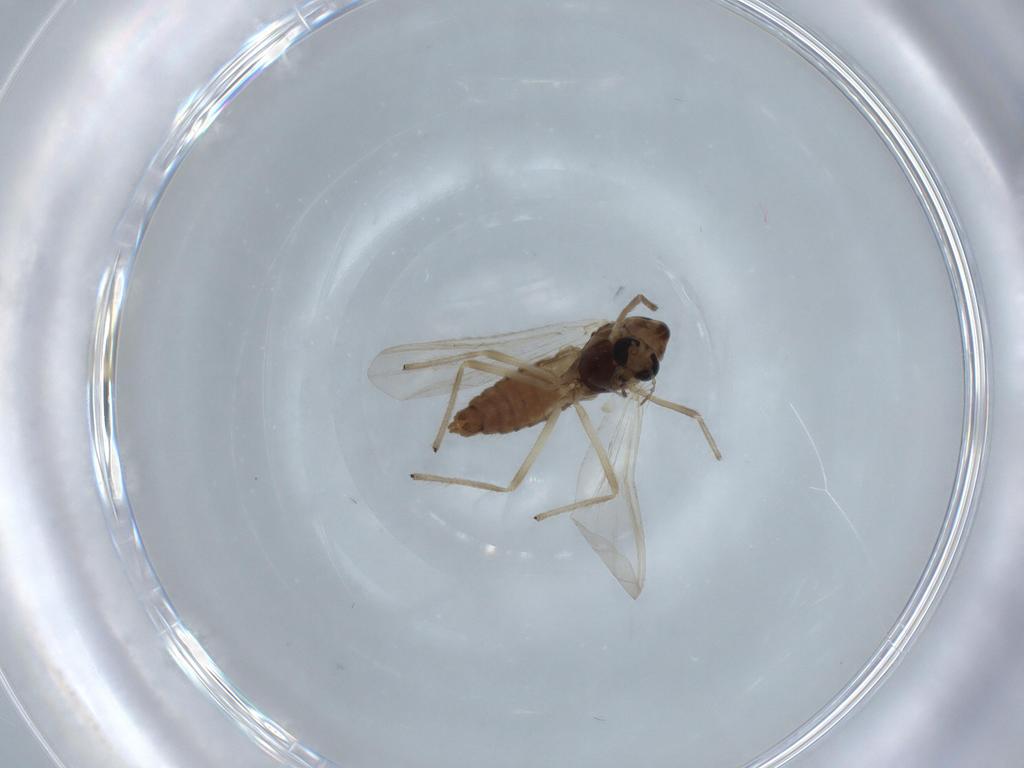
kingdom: Animalia
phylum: Arthropoda
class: Insecta
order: Diptera
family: Chironomidae
